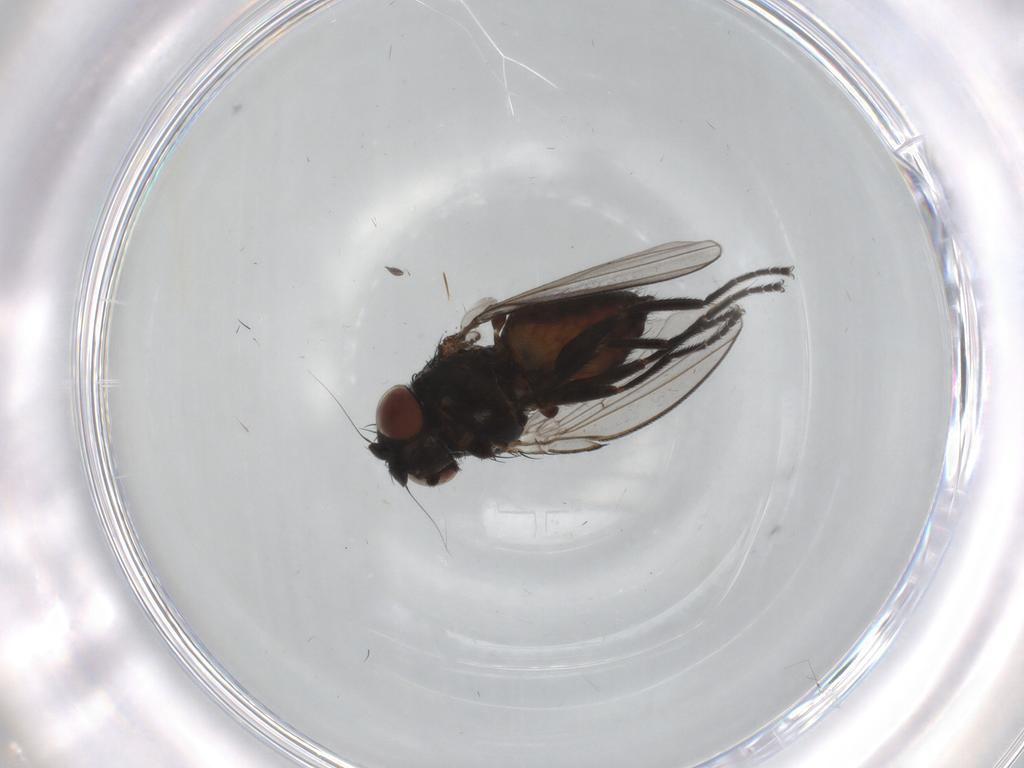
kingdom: Animalia
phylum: Arthropoda
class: Insecta
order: Diptera
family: Milichiidae
